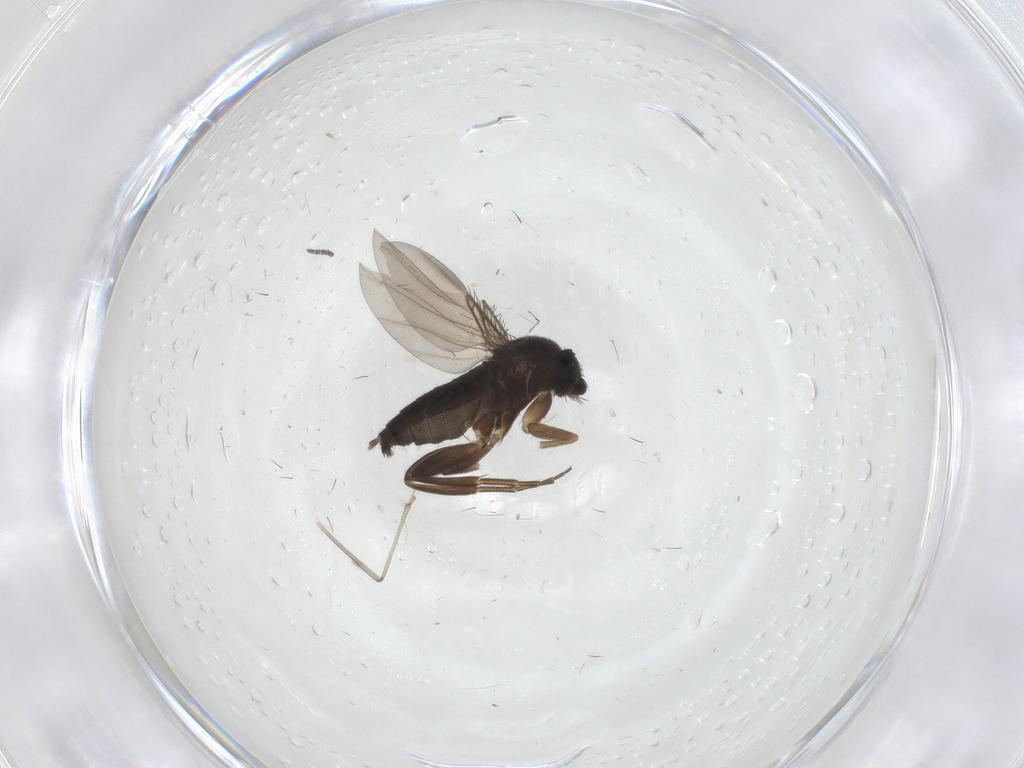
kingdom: Animalia
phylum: Arthropoda
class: Insecta
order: Diptera
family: Phoridae
